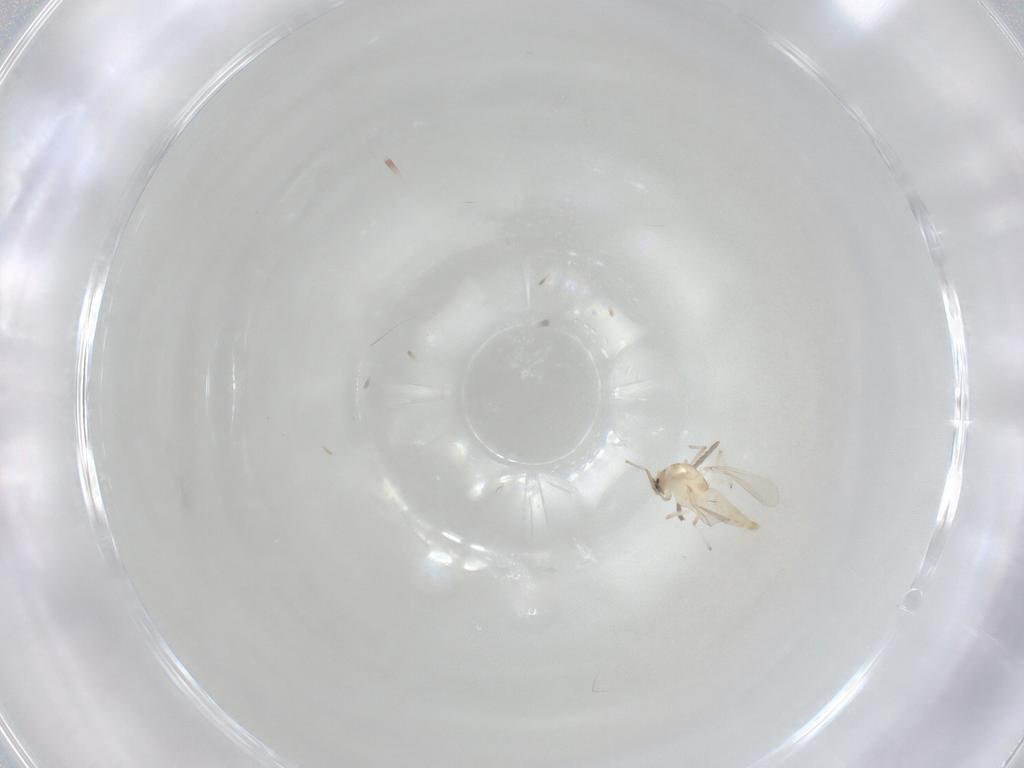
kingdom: Animalia
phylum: Arthropoda
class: Insecta
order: Diptera
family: Chironomidae
